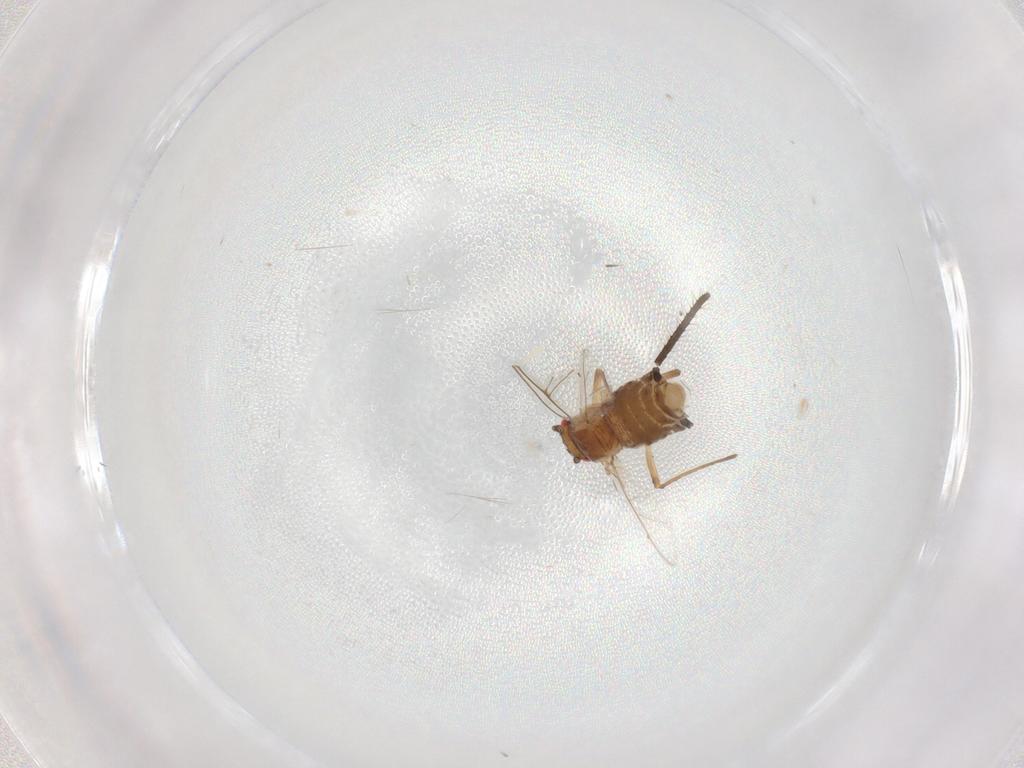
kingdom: Animalia
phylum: Arthropoda
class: Insecta
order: Hemiptera
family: Aphididae
